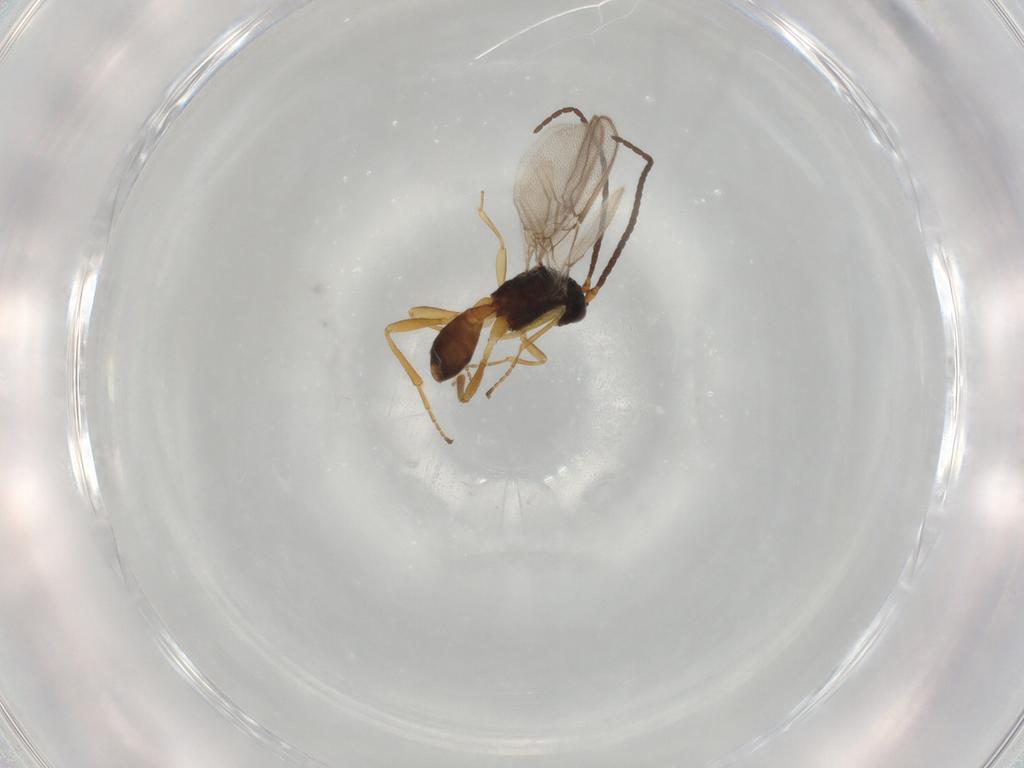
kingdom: Animalia
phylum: Arthropoda
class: Insecta
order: Hymenoptera
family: Braconidae
